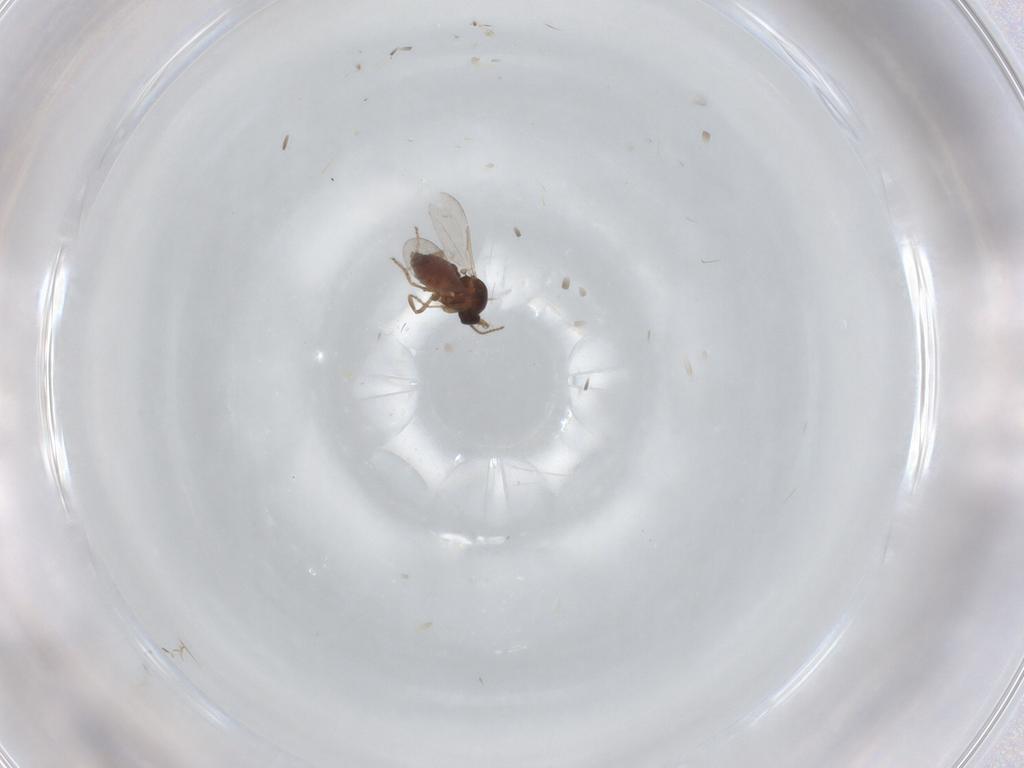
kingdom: Animalia
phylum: Arthropoda
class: Insecta
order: Diptera
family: Ceratopogonidae
